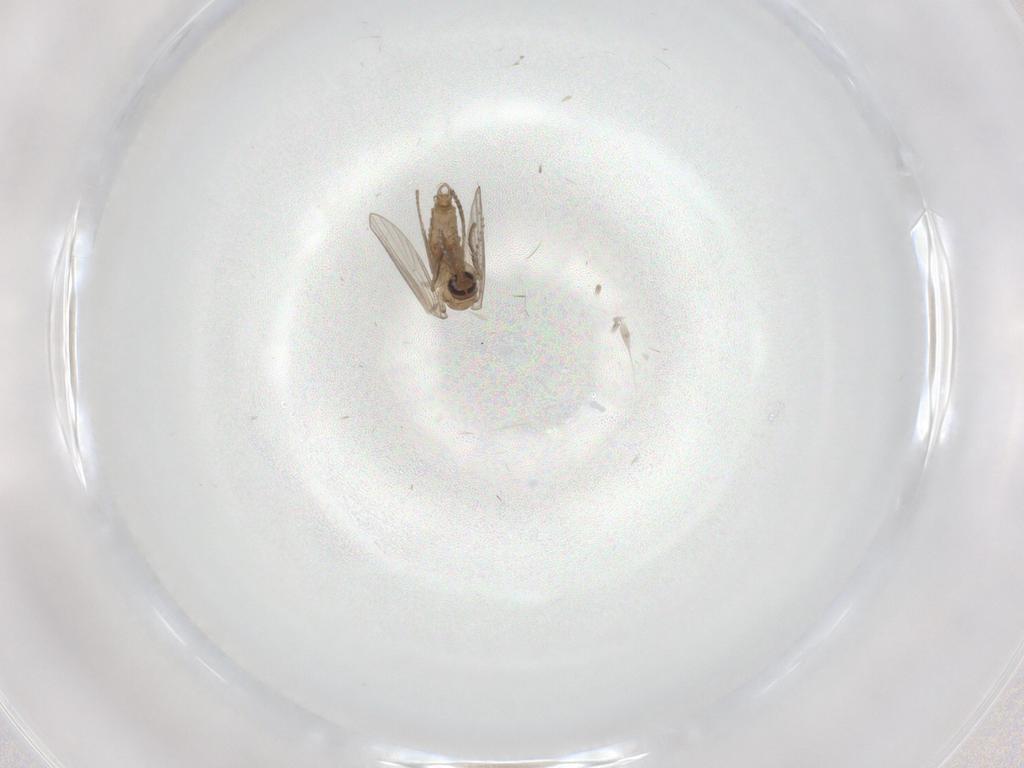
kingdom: Animalia
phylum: Arthropoda
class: Insecta
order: Diptera
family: Psychodidae
